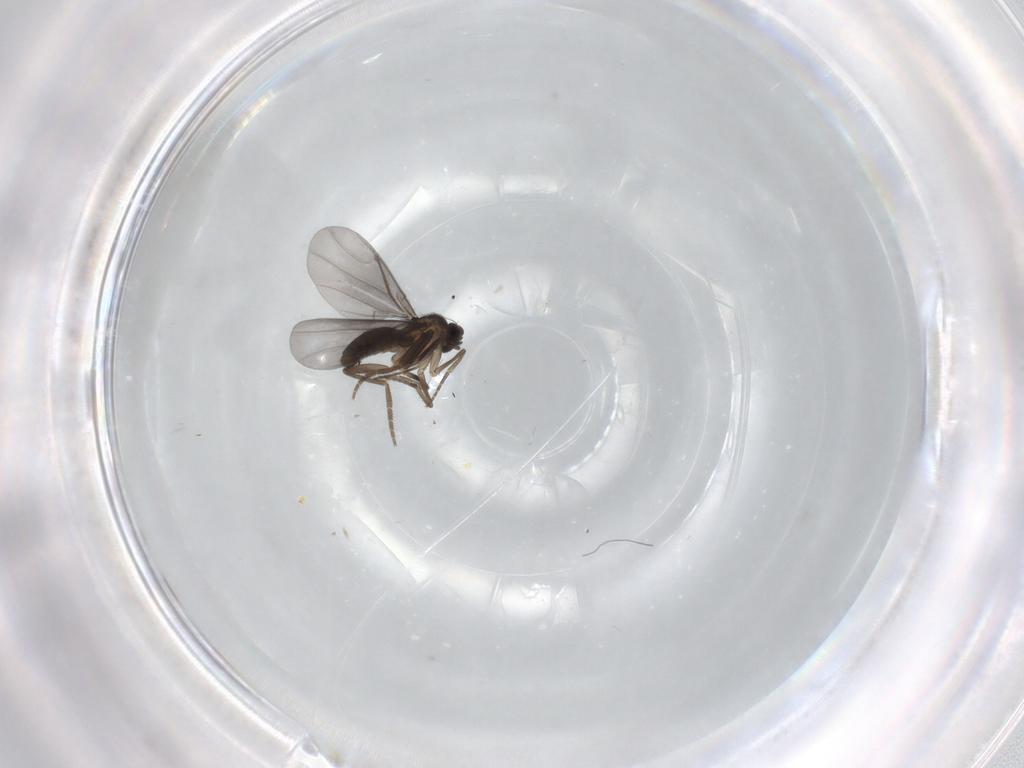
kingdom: Animalia
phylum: Arthropoda
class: Insecta
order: Diptera
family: Phoridae
